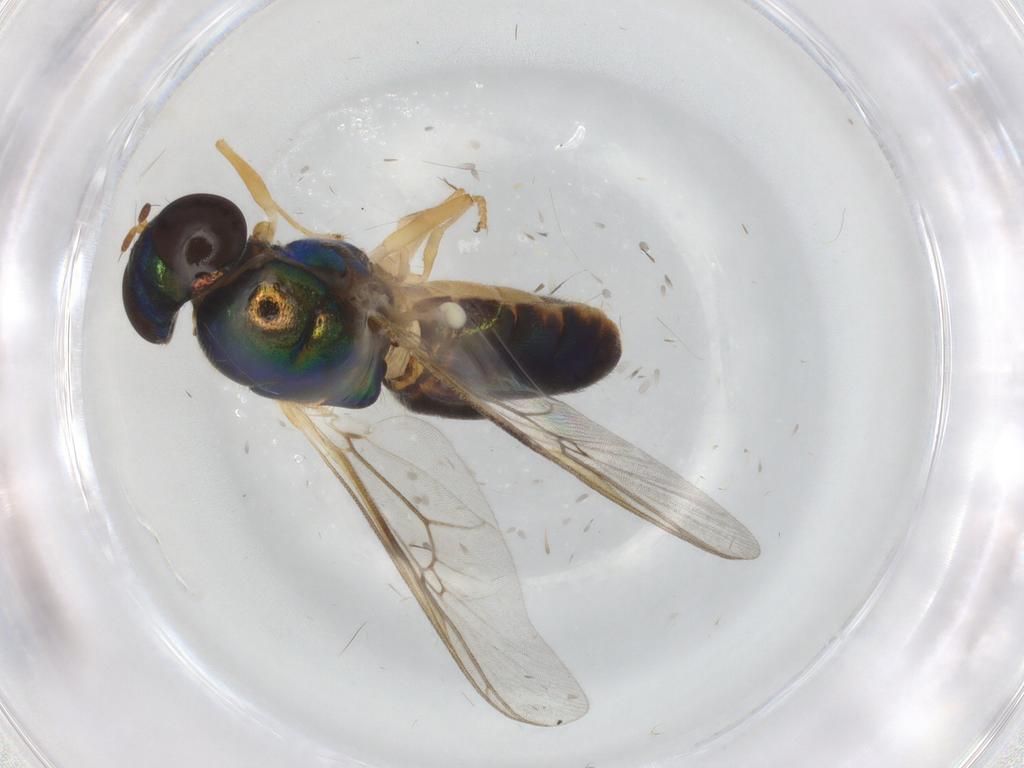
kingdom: Animalia
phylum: Arthropoda
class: Insecta
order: Diptera
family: Stratiomyidae
